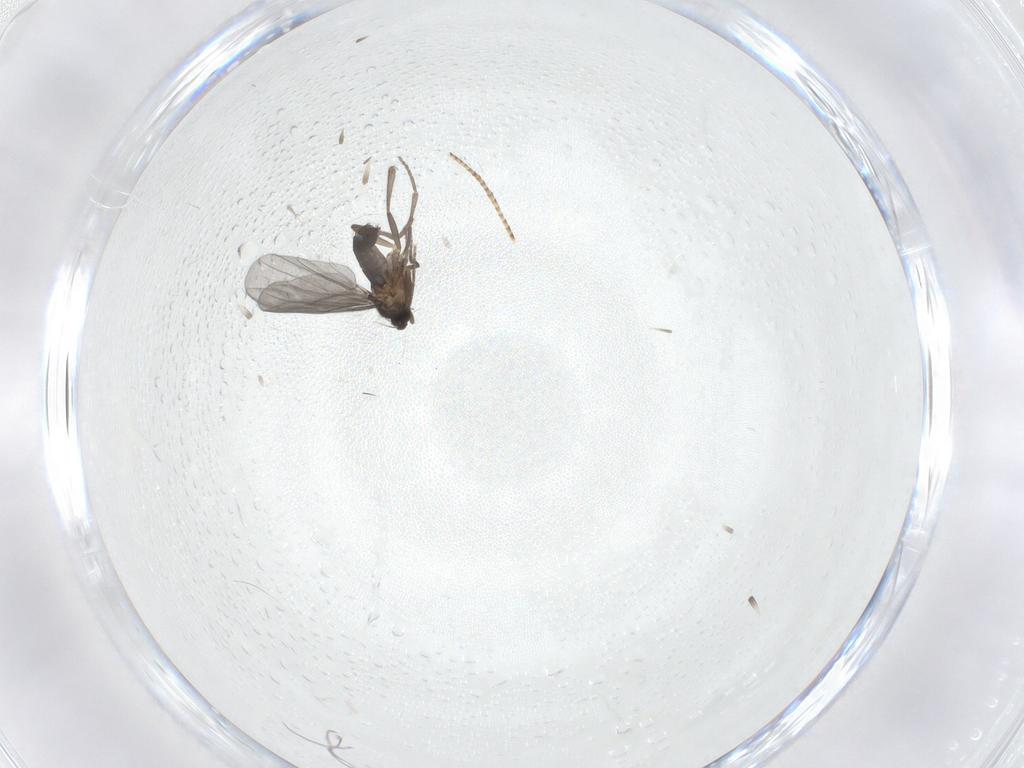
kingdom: Animalia
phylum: Arthropoda
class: Insecta
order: Diptera
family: Phoridae
